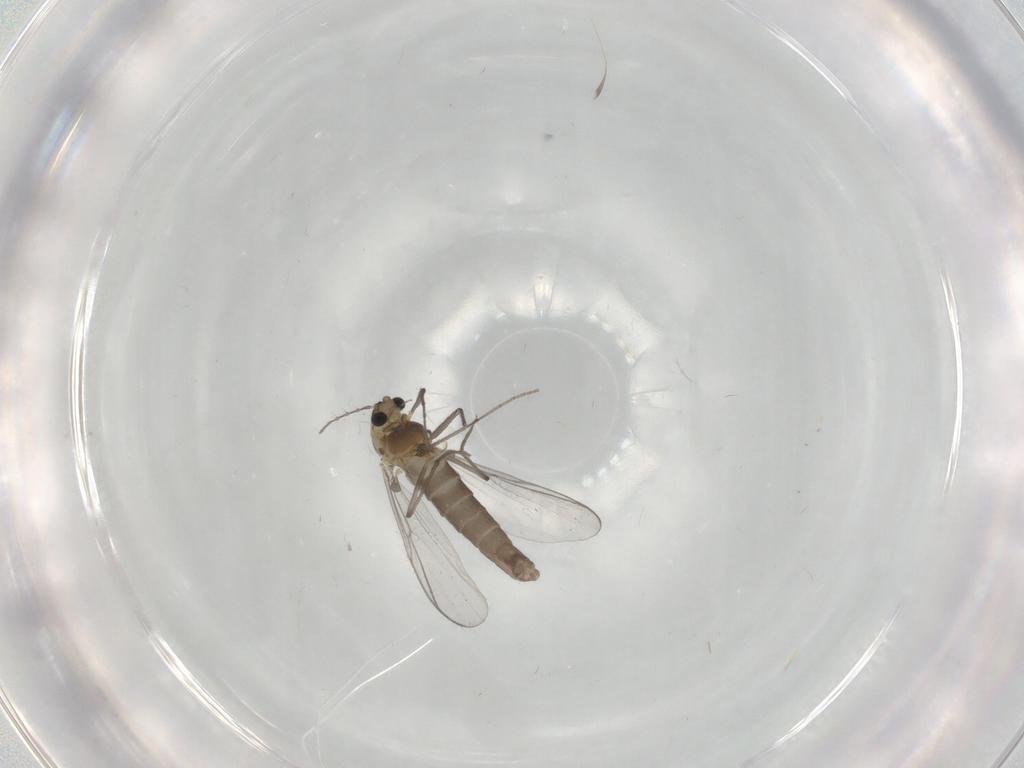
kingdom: Animalia
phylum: Arthropoda
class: Insecta
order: Diptera
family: Chironomidae
